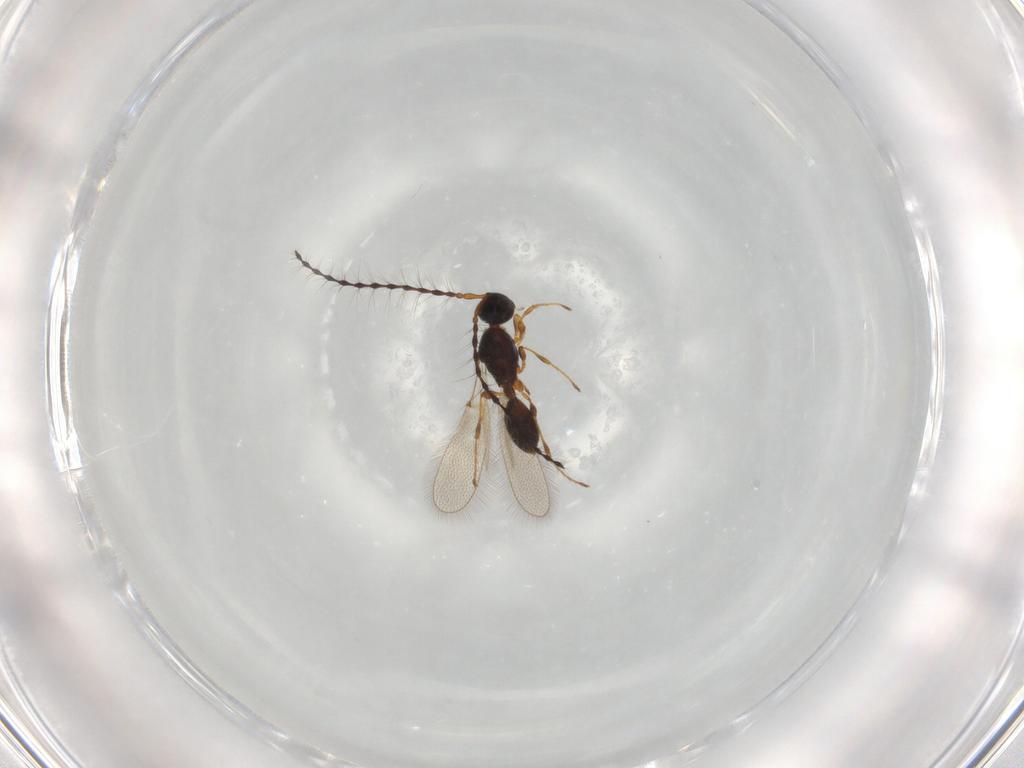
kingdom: Animalia
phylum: Arthropoda
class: Insecta
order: Hymenoptera
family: Diapriidae
